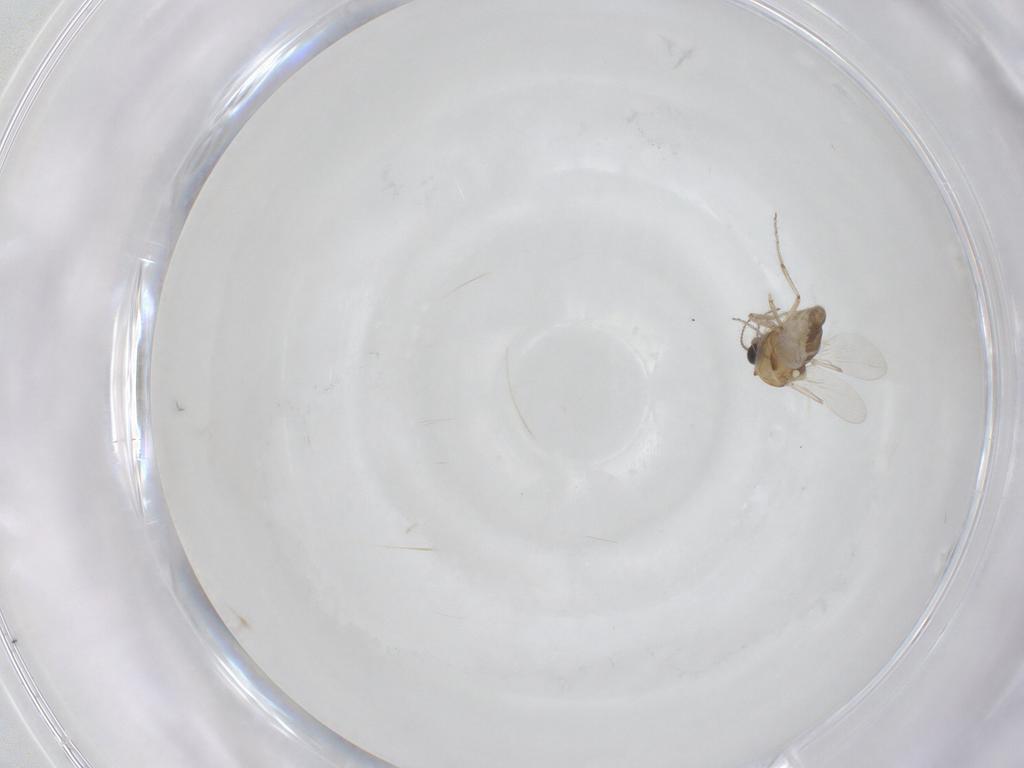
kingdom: Animalia
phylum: Arthropoda
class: Insecta
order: Diptera
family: Ceratopogonidae
